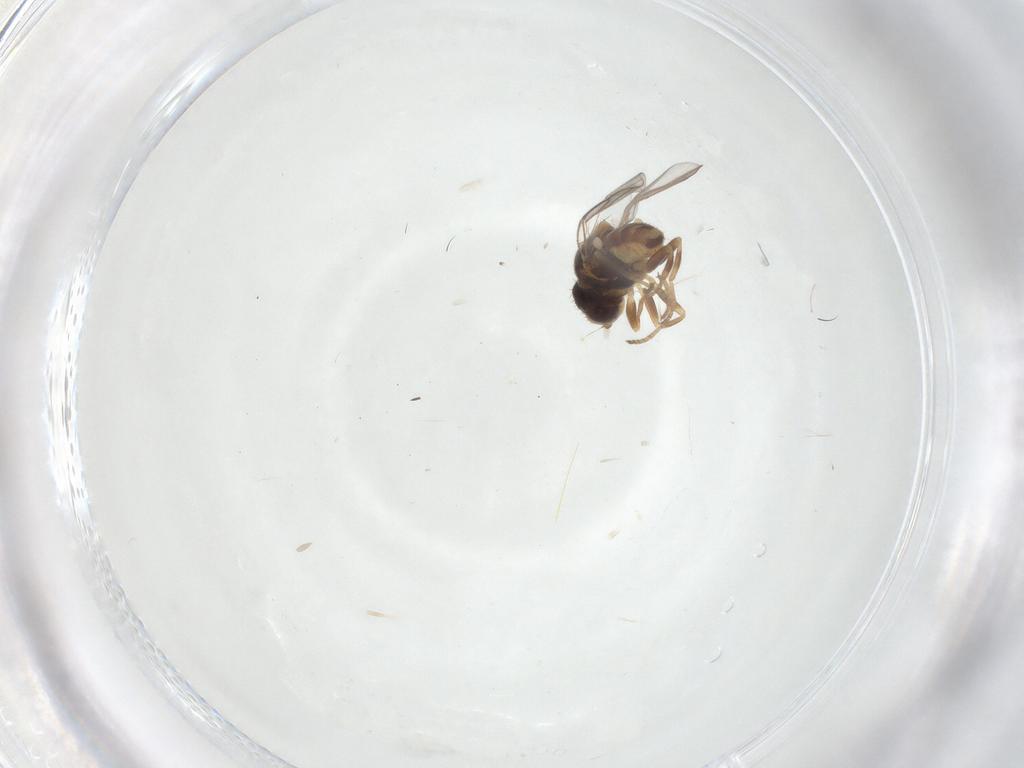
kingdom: Animalia
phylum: Arthropoda
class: Insecta
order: Diptera
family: Chloropidae
